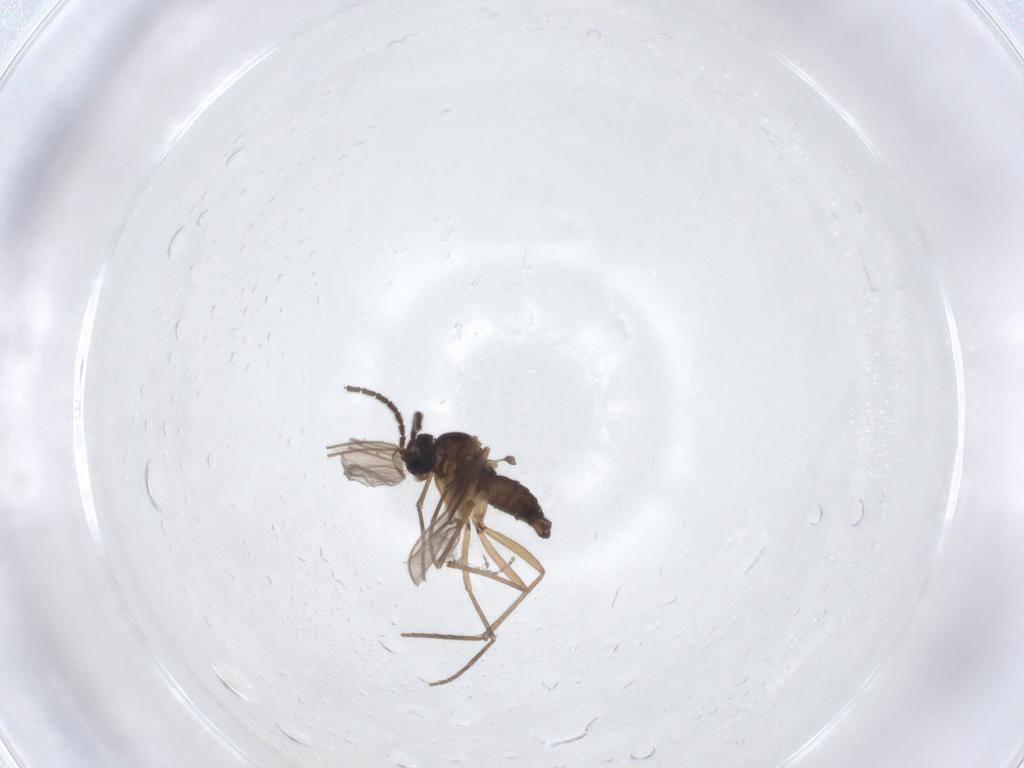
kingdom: Animalia
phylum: Arthropoda
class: Insecta
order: Diptera
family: Cecidomyiidae
